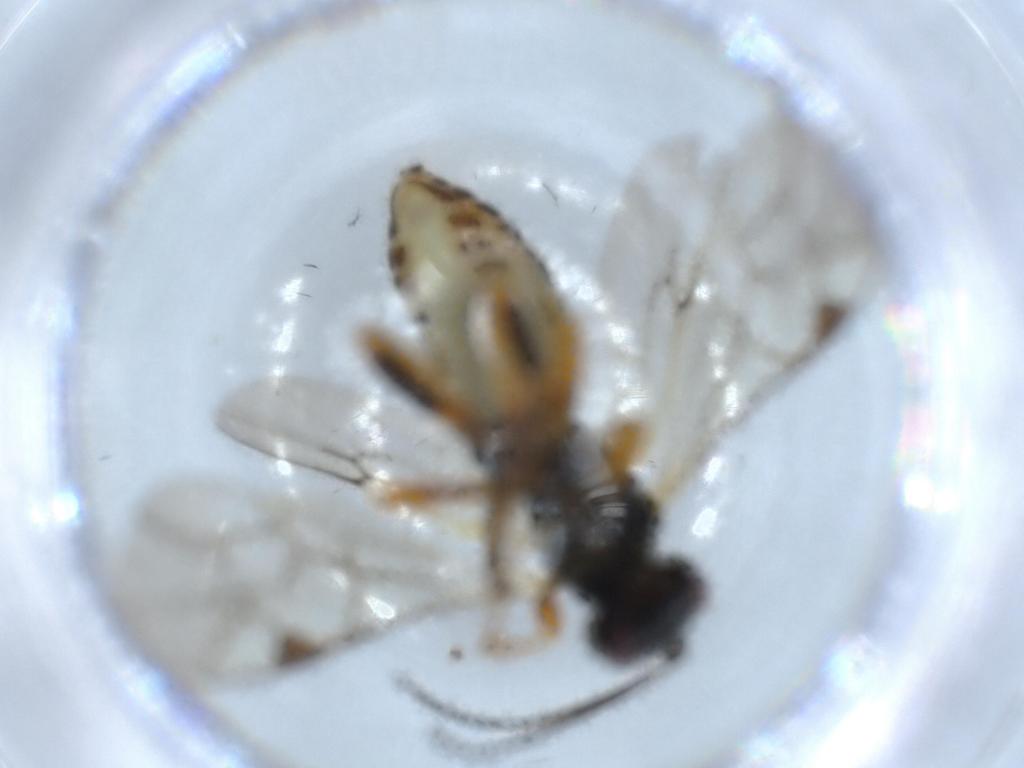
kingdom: Animalia
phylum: Arthropoda
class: Insecta
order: Hymenoptera
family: Ichneumonidae
